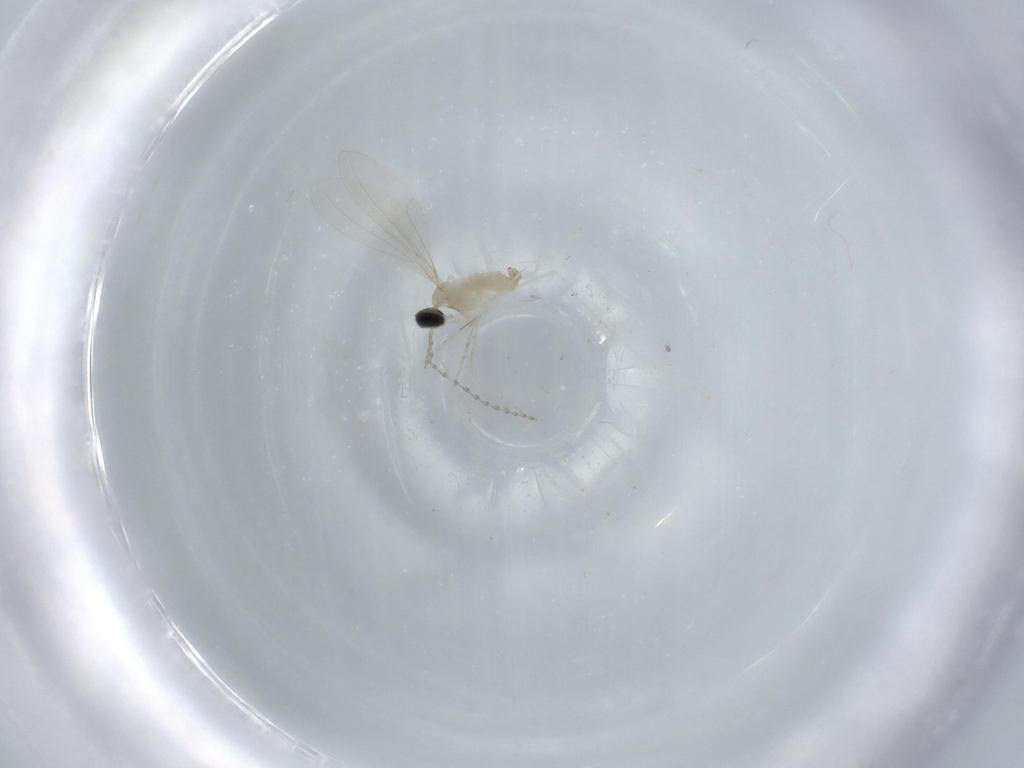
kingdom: Animalia
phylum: Arthropoda
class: Insecta
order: Diptera
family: Cecidomyiidae
